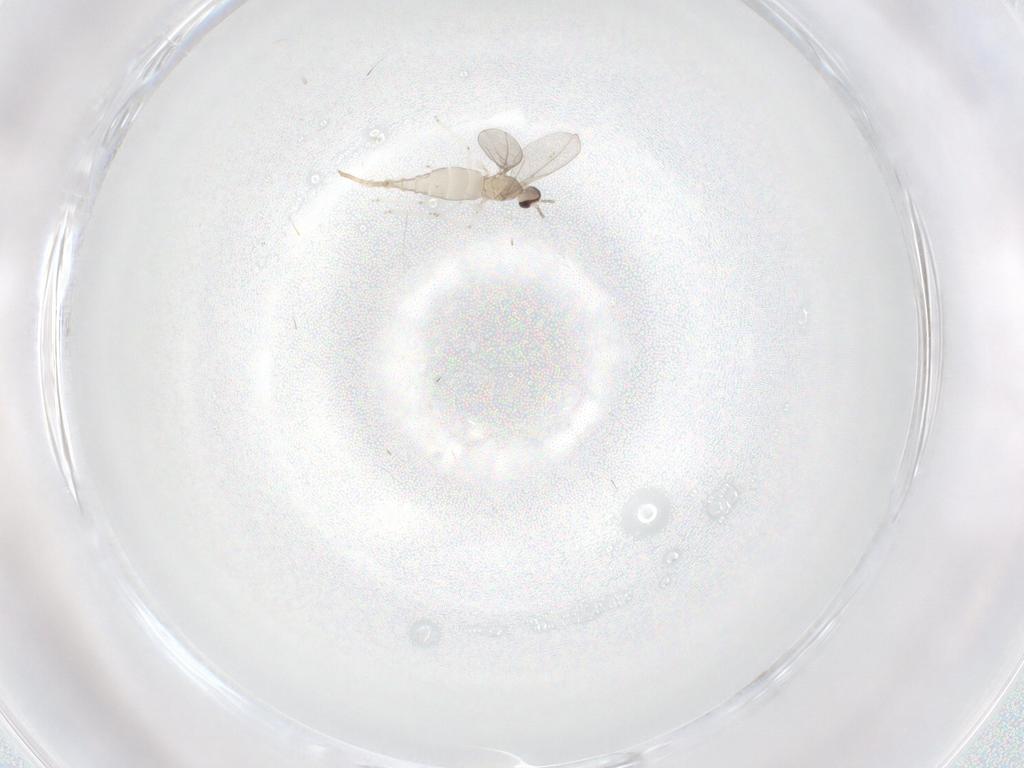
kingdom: Animalia
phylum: Arthropoda
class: Insecta
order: Diptera
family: Cecidomyiidae
